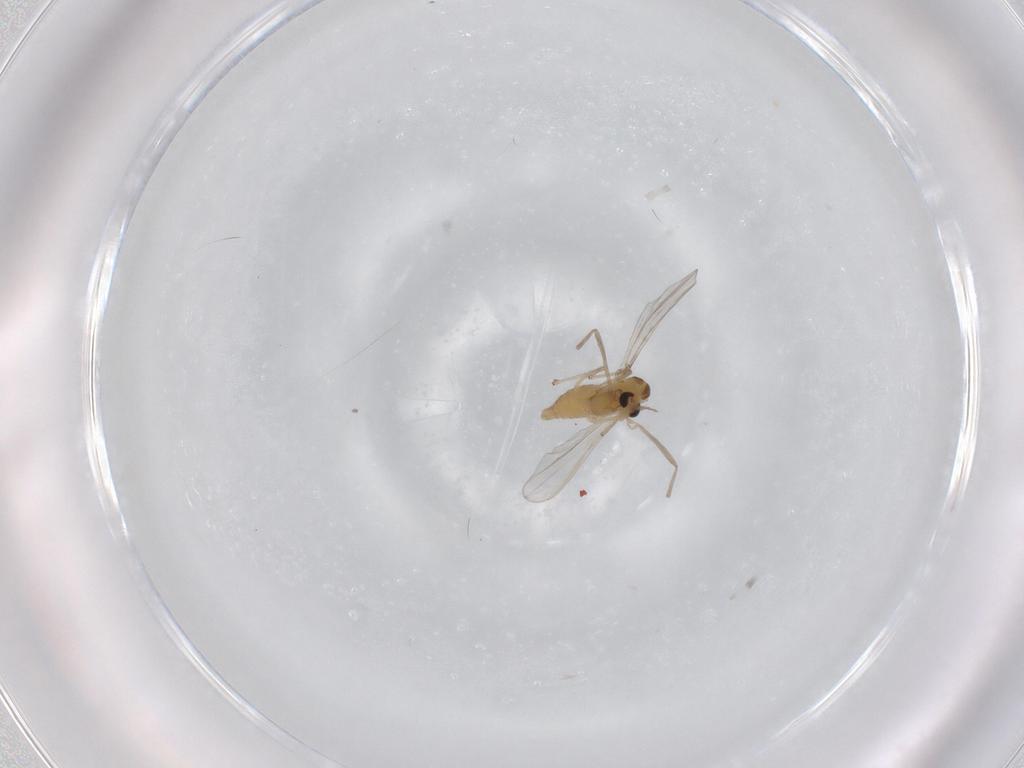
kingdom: Animalia
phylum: Arthropoda
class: Insecta
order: Diptera
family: Chironomidae
